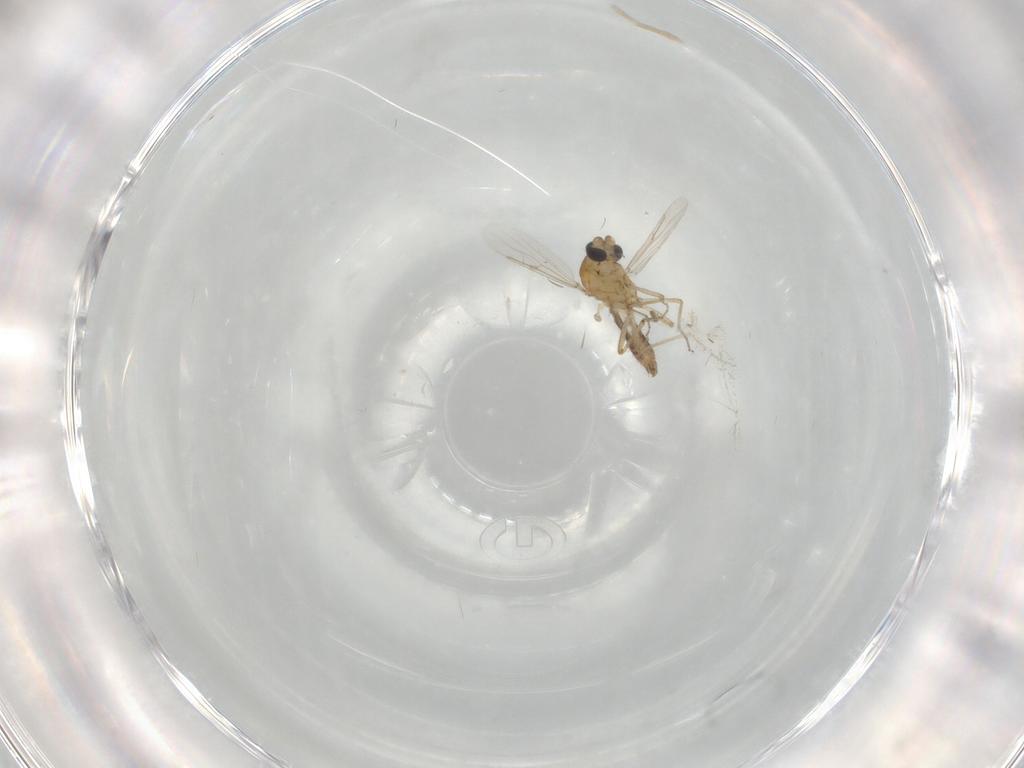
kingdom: Animalia
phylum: Arthropoda
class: Insecta
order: Diptera
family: Ceratopogonidae
